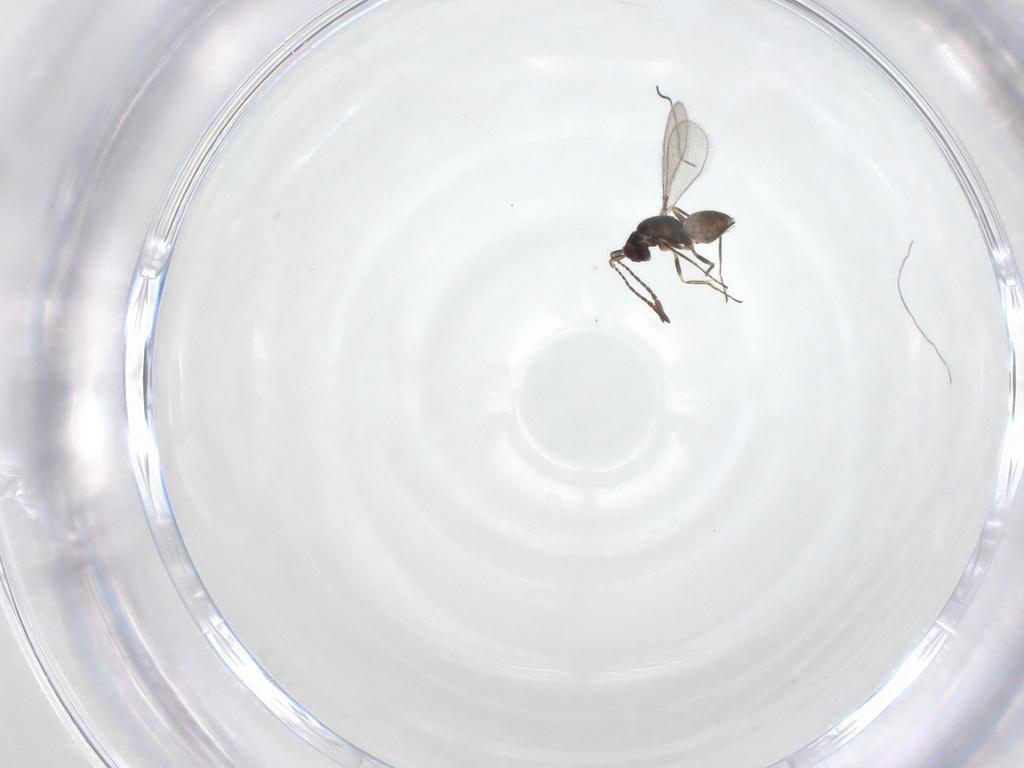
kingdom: Animalia
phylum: Arthropoda
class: Insecta
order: Hymenoptera
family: Mymaridae
